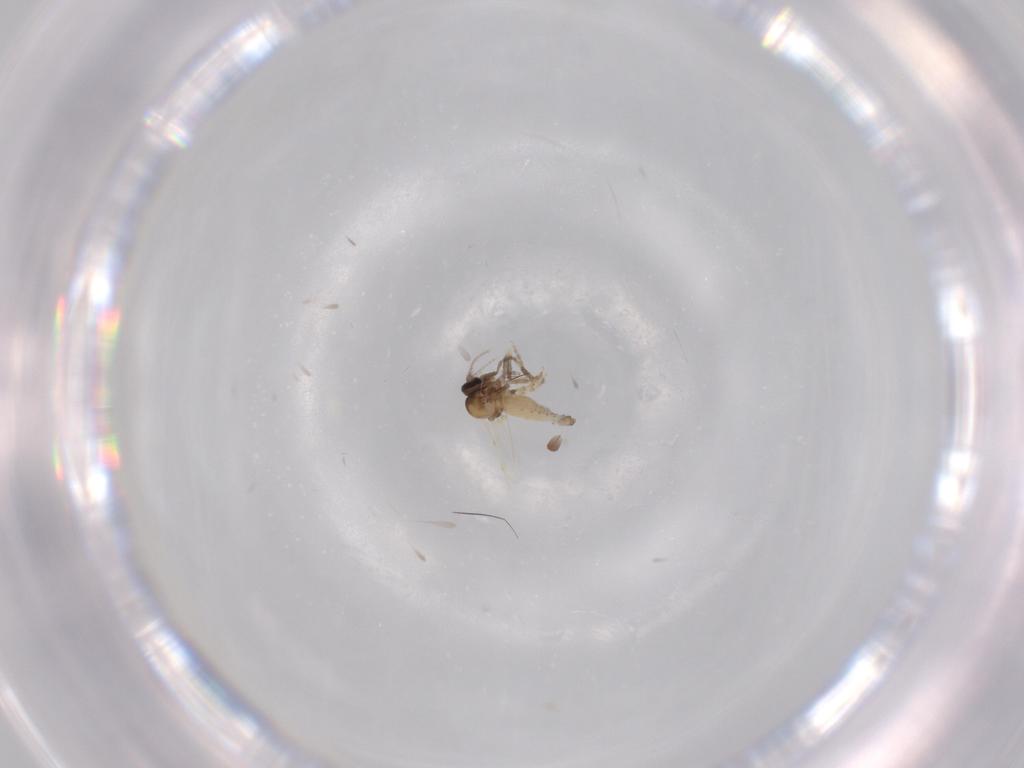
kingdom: Animalia
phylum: Arthropoda
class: Insecta
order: Diptera
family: Ceratopogonidae
